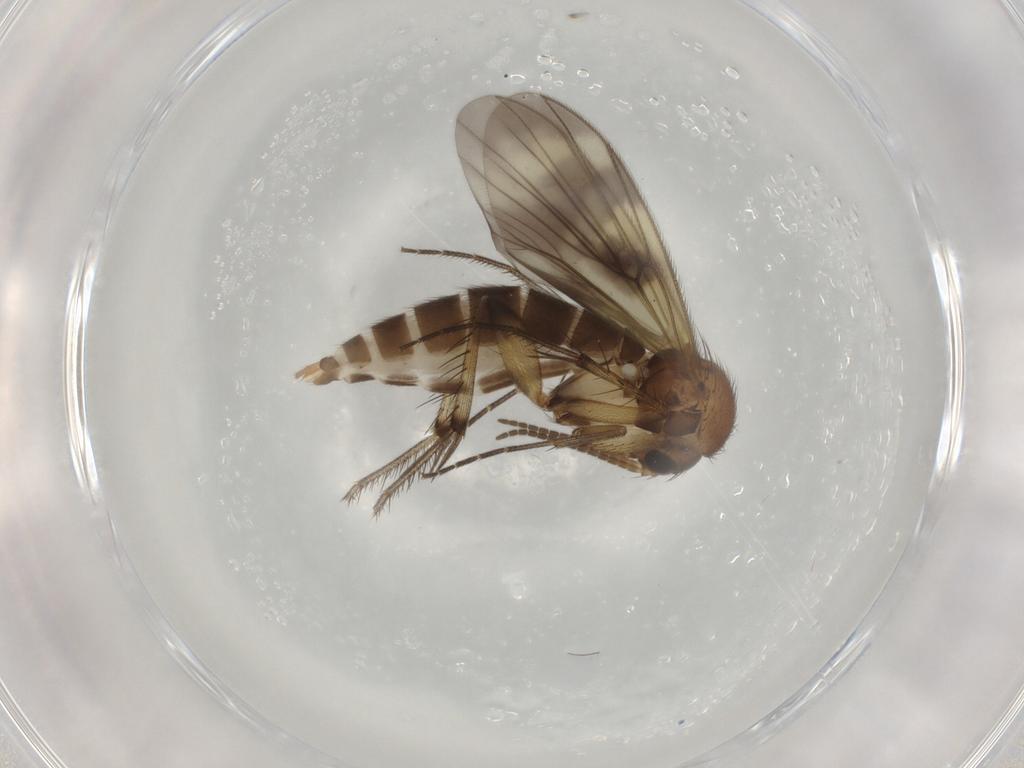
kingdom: Animalia
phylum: Arthropoda
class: Insecta
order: Diptera
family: Mycetophilidae
